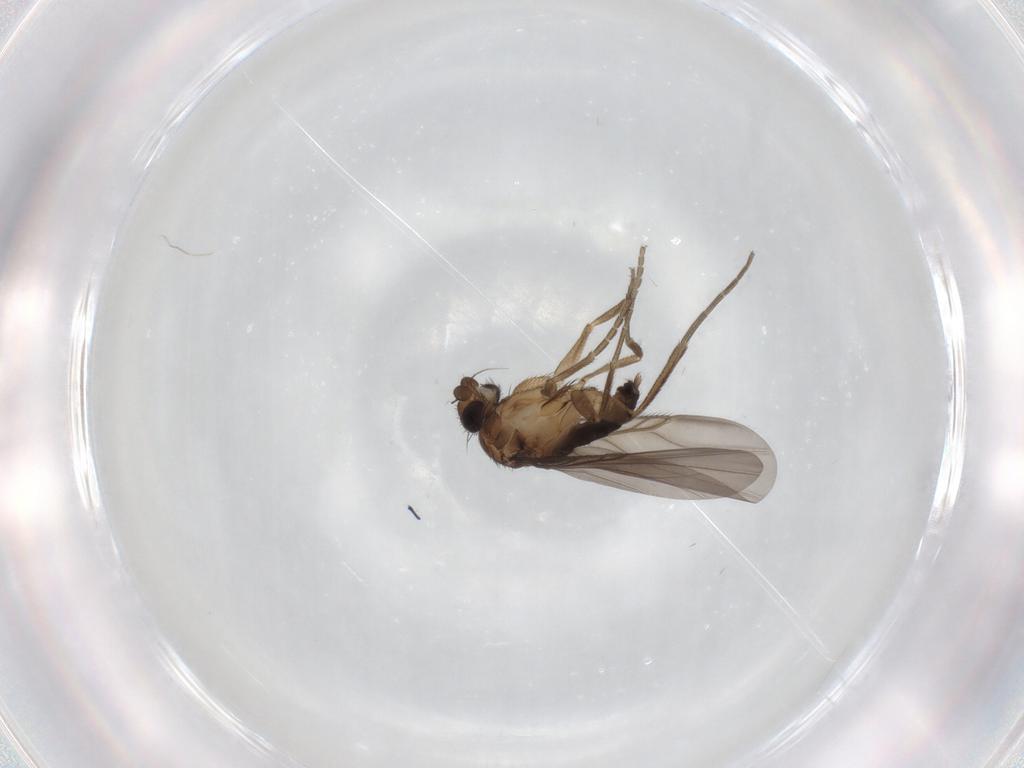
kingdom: Animalia
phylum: Arthropoda
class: Insecta
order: Diptera
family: Phoridae
